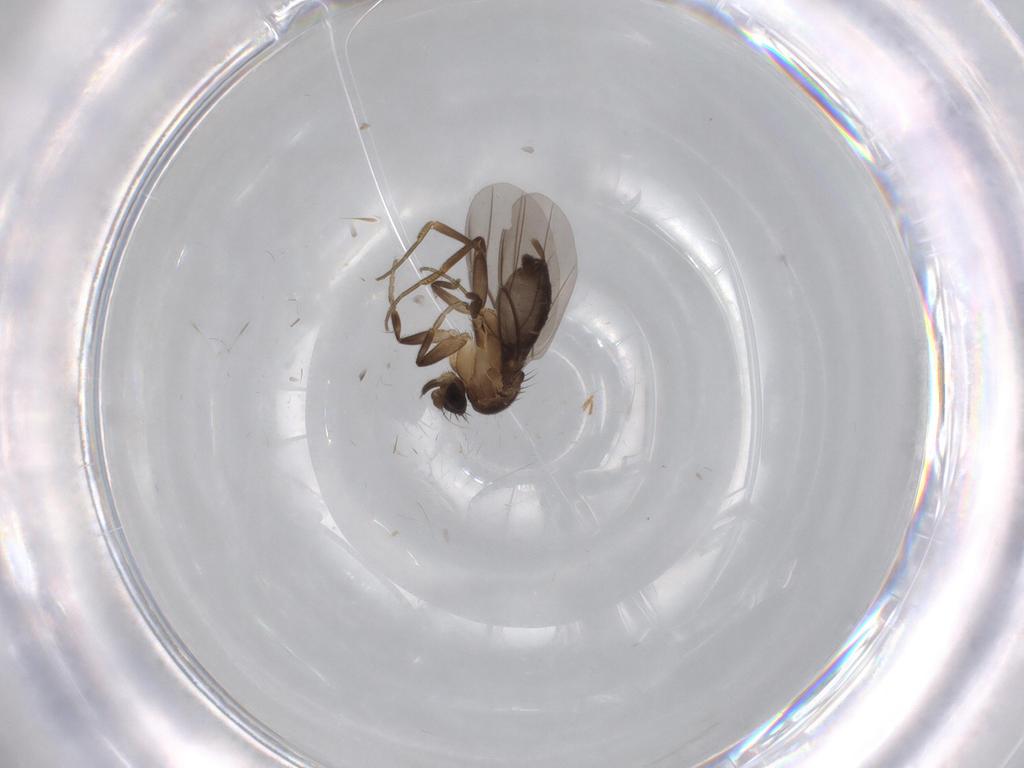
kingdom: Animalia
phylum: Arthropoda
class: Insecta
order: Diptera
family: Phoridae
